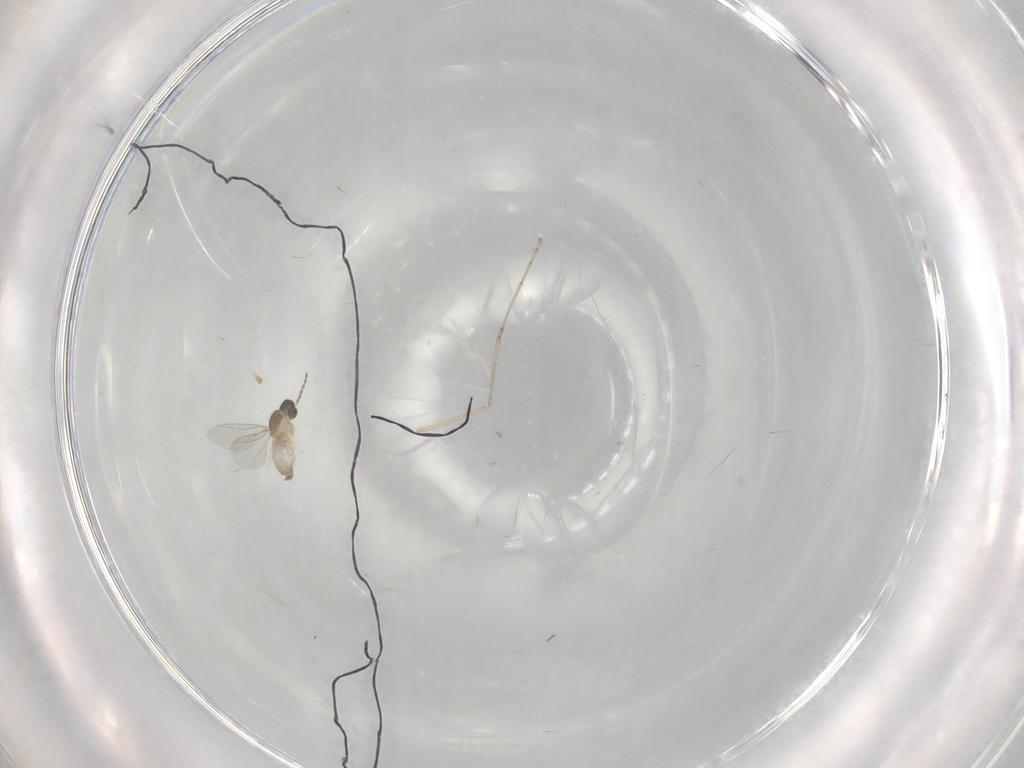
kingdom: Animalia
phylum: Arthropoda
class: Insecta
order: Diptera
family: Cecidomyiidae
